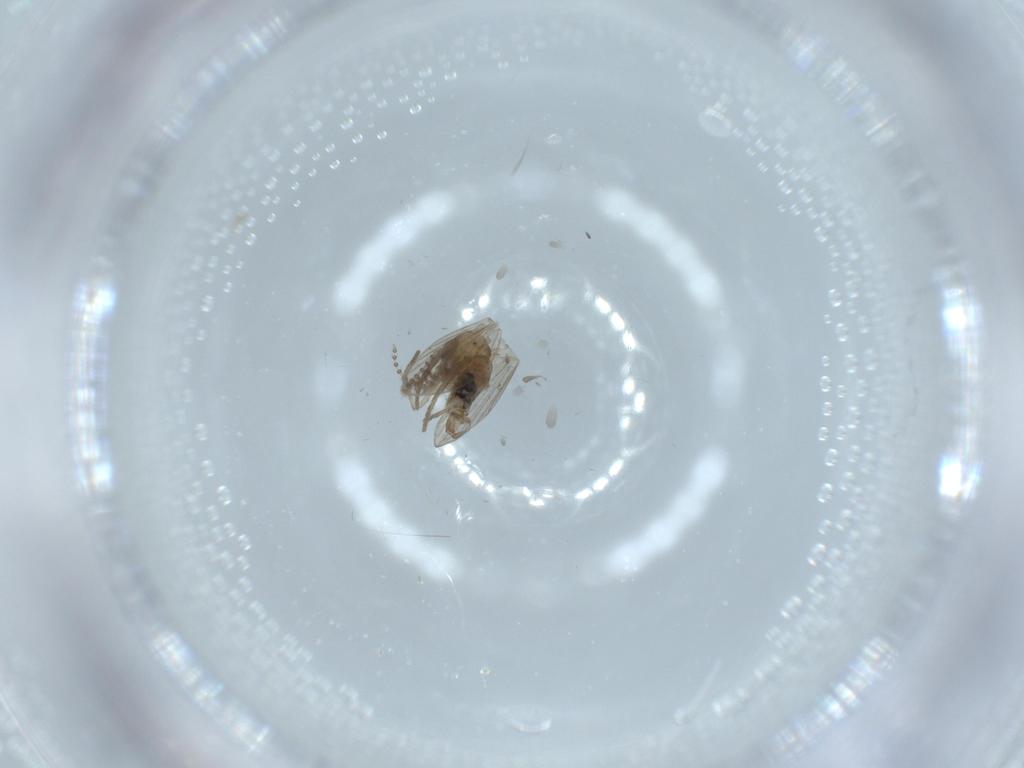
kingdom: Animalia
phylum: Arthropoda
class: Insecta
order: Diptera
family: Psychodidae
